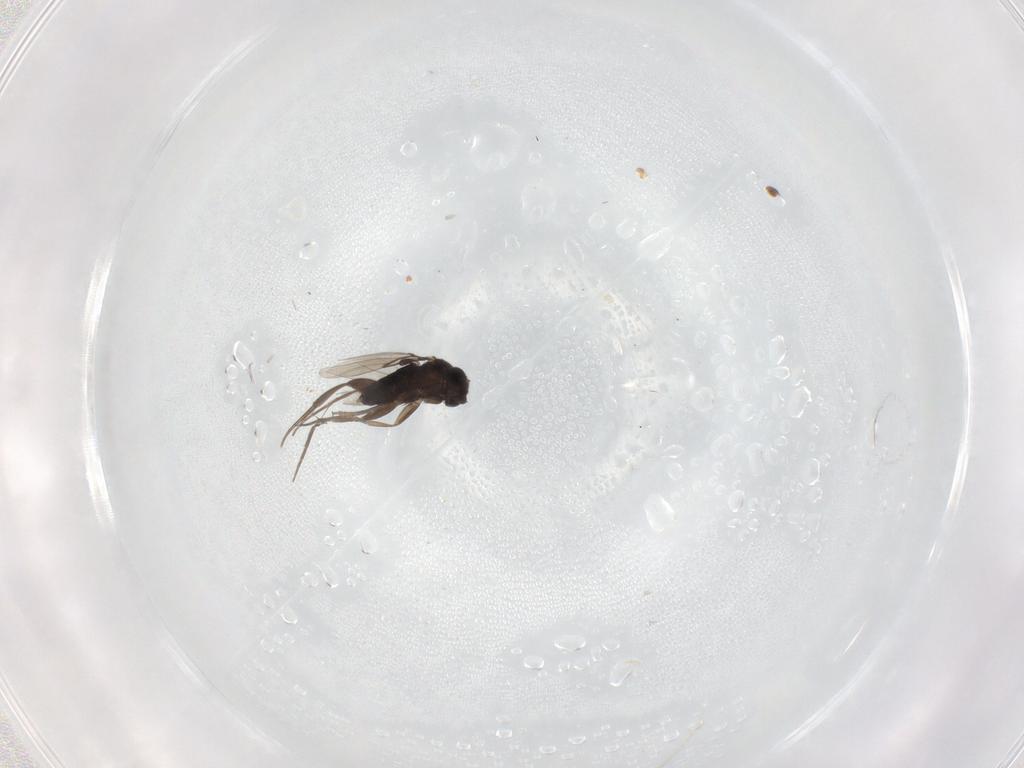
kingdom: Animalia
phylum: Arthropoda
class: Insecta
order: Diptera
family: Phoridae
